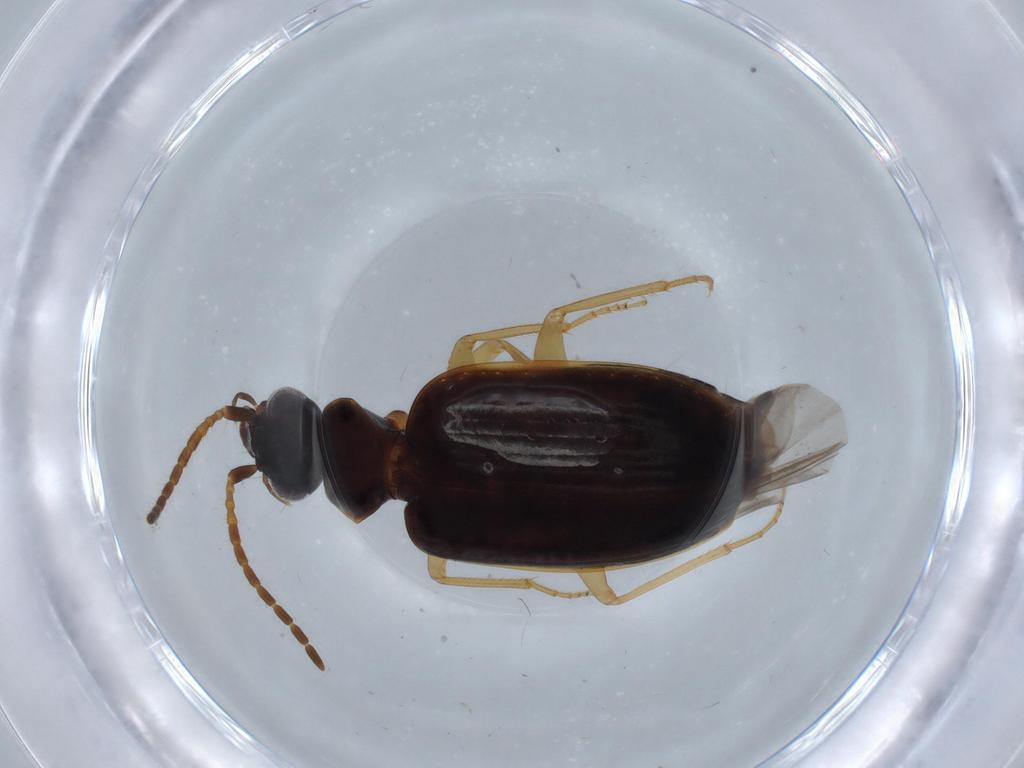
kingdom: Animalia
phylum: Arthropoda
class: Insecta
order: Coleoptera
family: Carabidae
